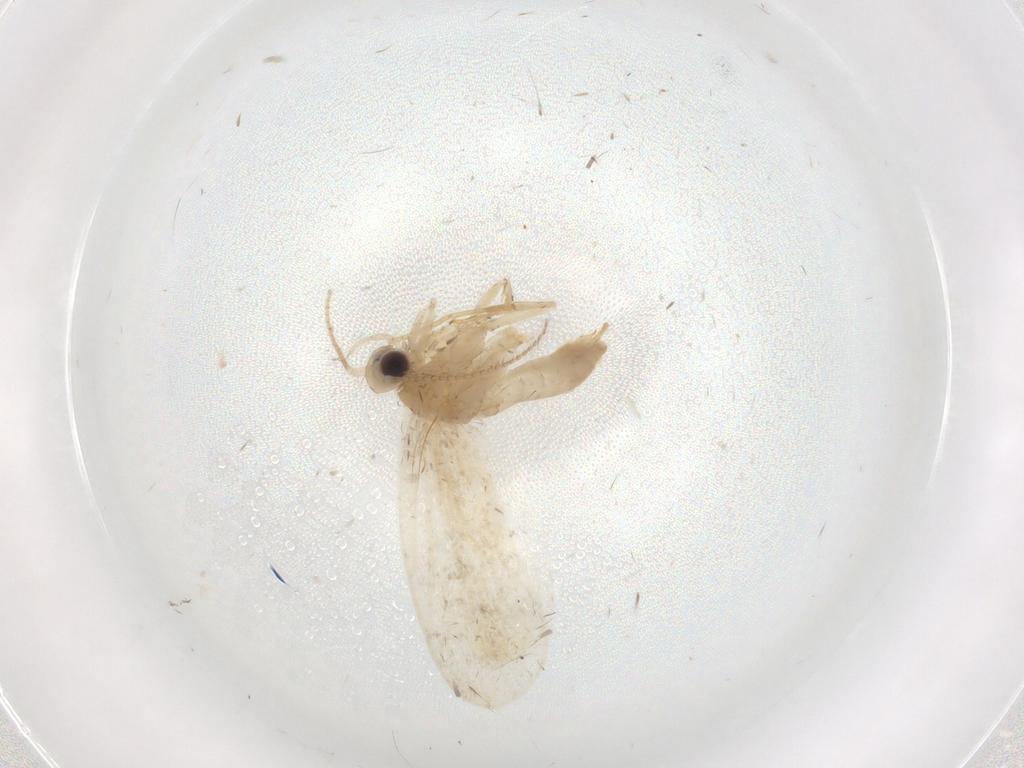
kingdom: Animalia
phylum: Arthropoda
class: Insecta
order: Lepidoptera
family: Psychidae
